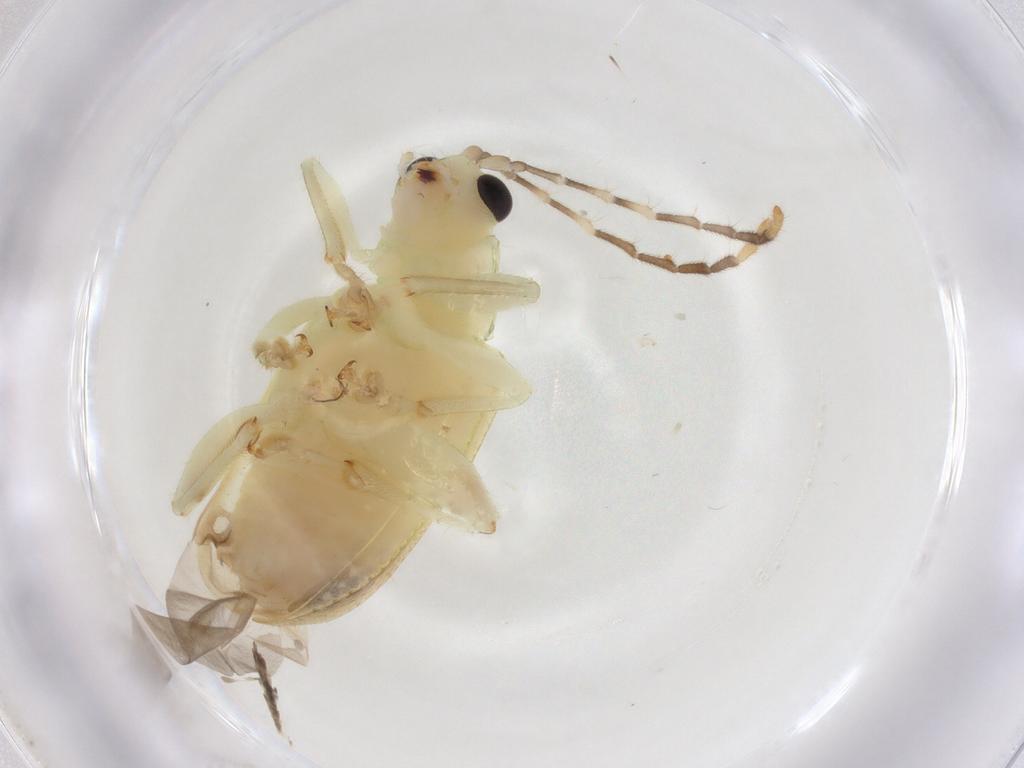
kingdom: Animalia
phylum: Arthropoda
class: Insecta
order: Coleoptera
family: Chrysomelidae
